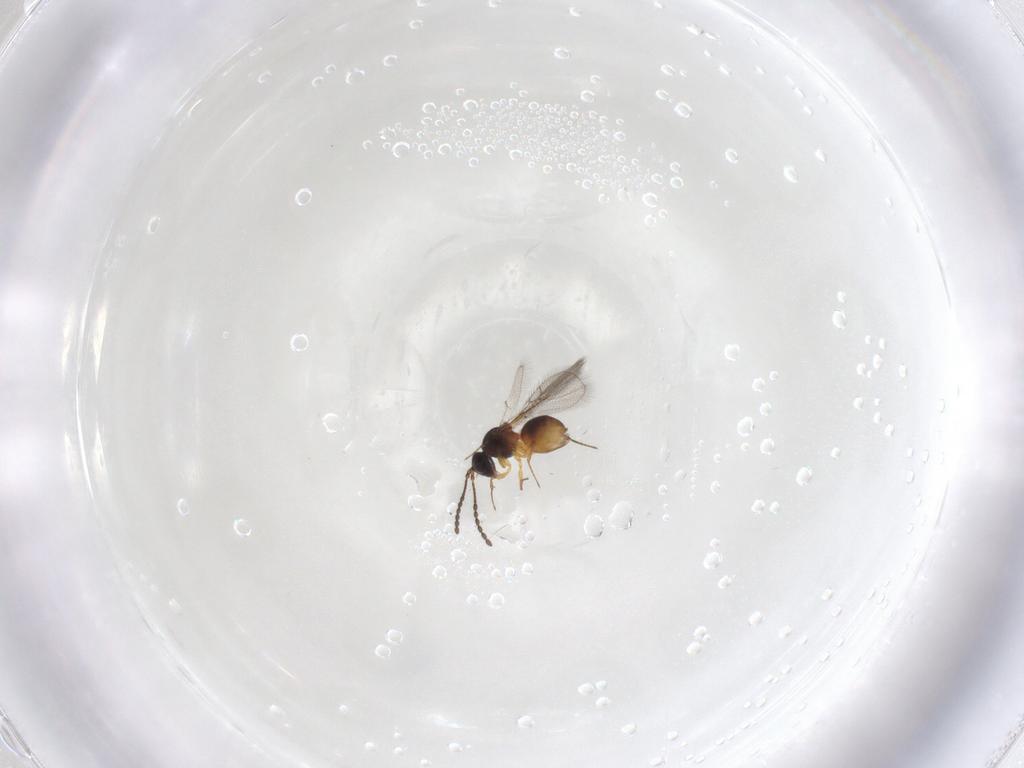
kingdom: Animalia
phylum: Arthropoda
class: Insecta
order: Hymenoptera
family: Figitidae
